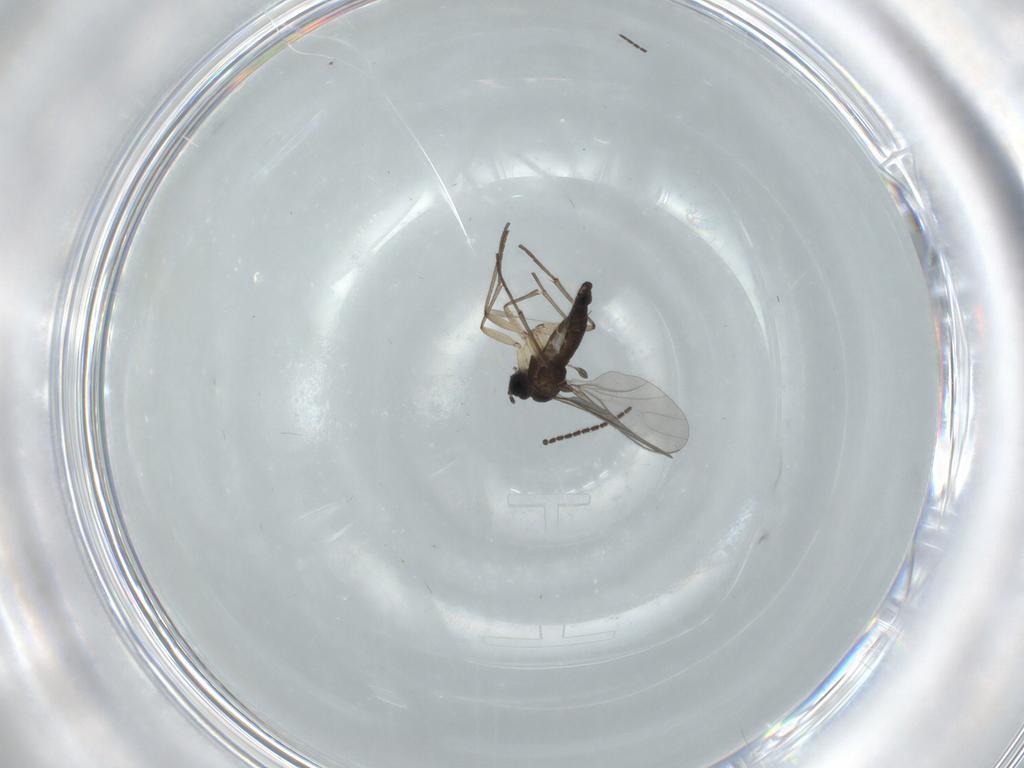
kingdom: Animalia
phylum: Arthropoda
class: Insecta
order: Diptera
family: Sciaridae
